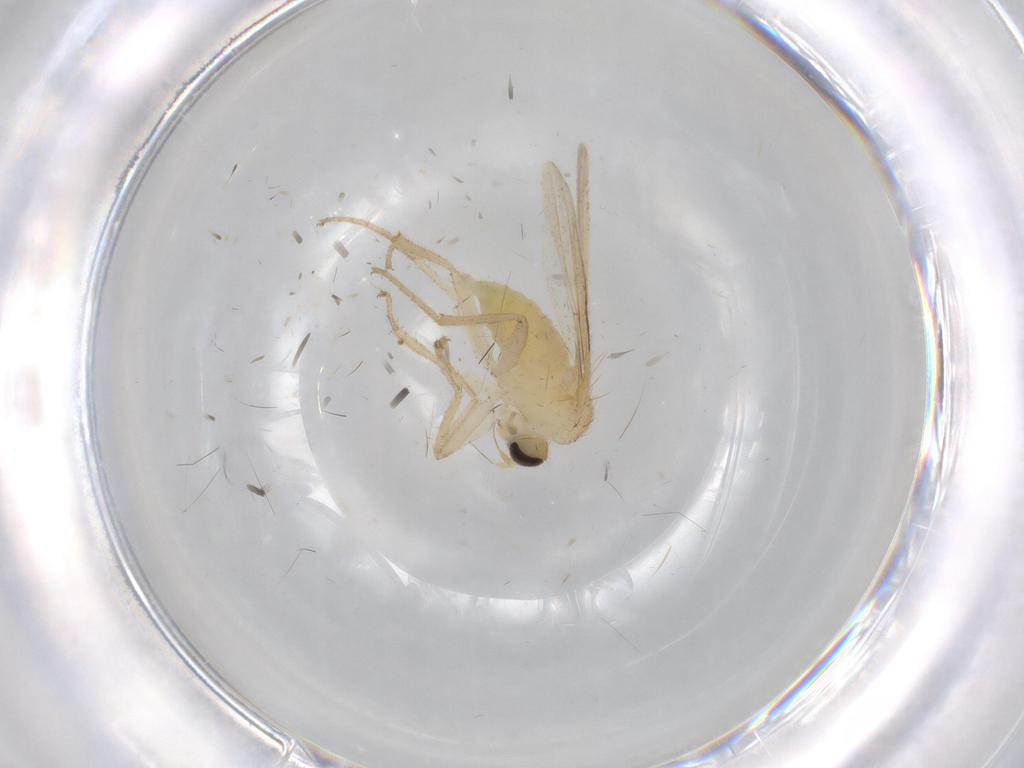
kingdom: Animalia
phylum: Arthropoda
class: Insecta
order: Diptera
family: Hybotidae
